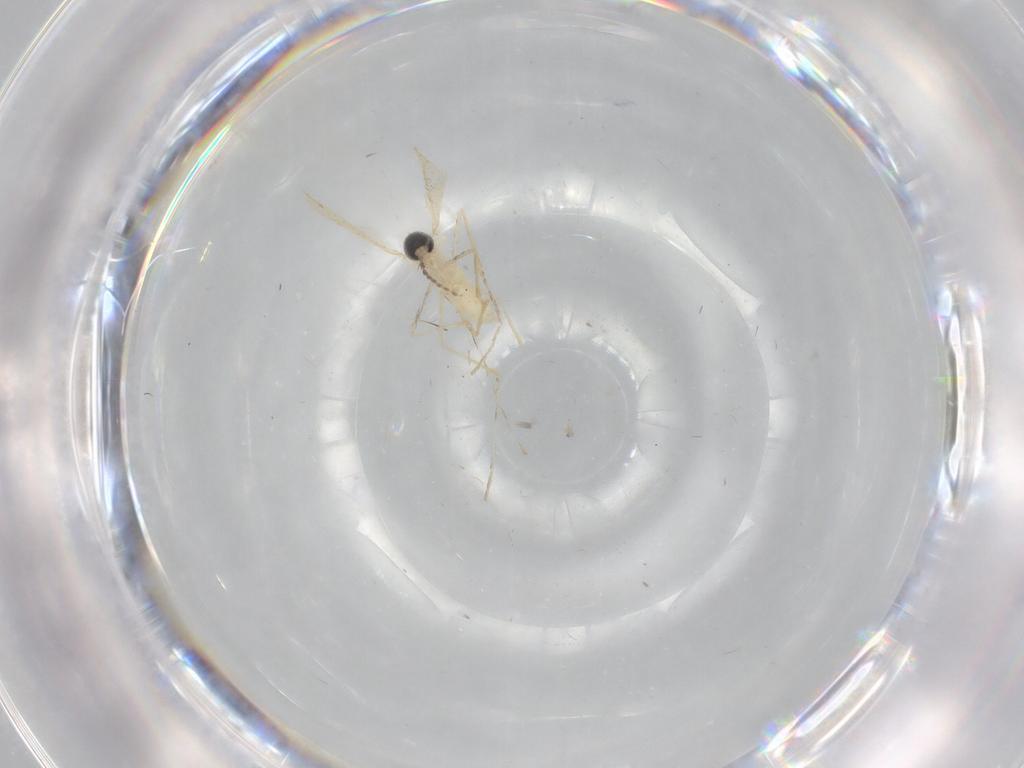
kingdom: Animalia
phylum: Arthropoda
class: Insecta
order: Diptera
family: Cecidomyiidae
